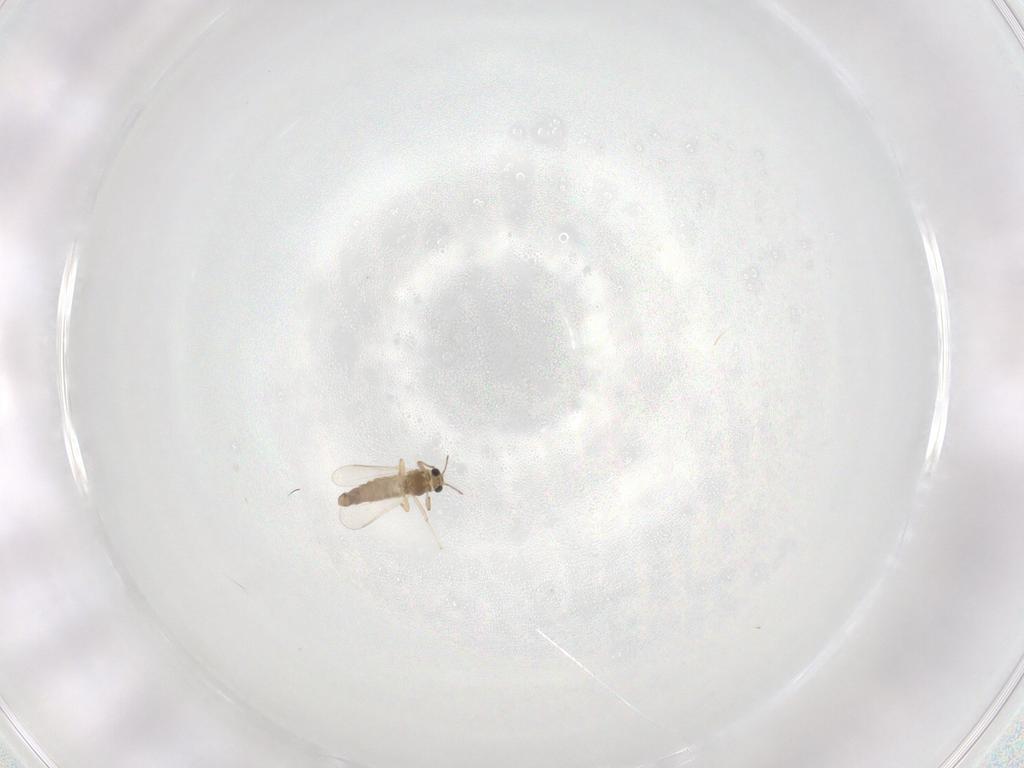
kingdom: Animalia
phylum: Arthropoda
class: Insecta
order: Diptera
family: Chironomidae
